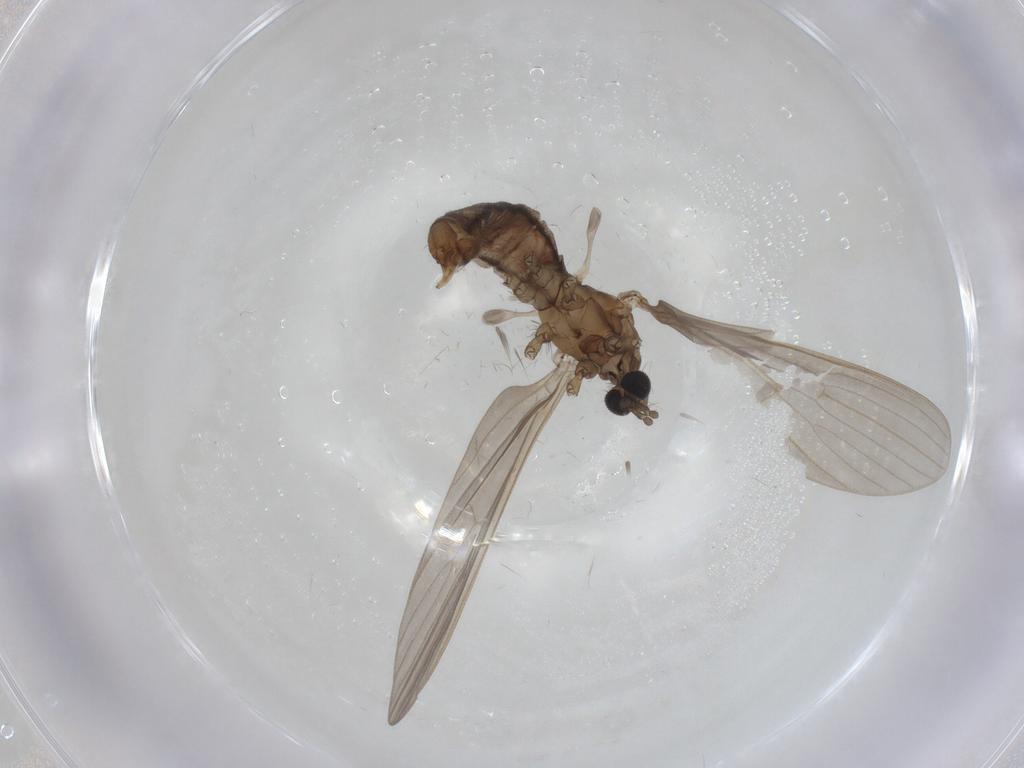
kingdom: Animalia
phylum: Arthropoda
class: Insecta
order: Diptera
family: Limoniidae
